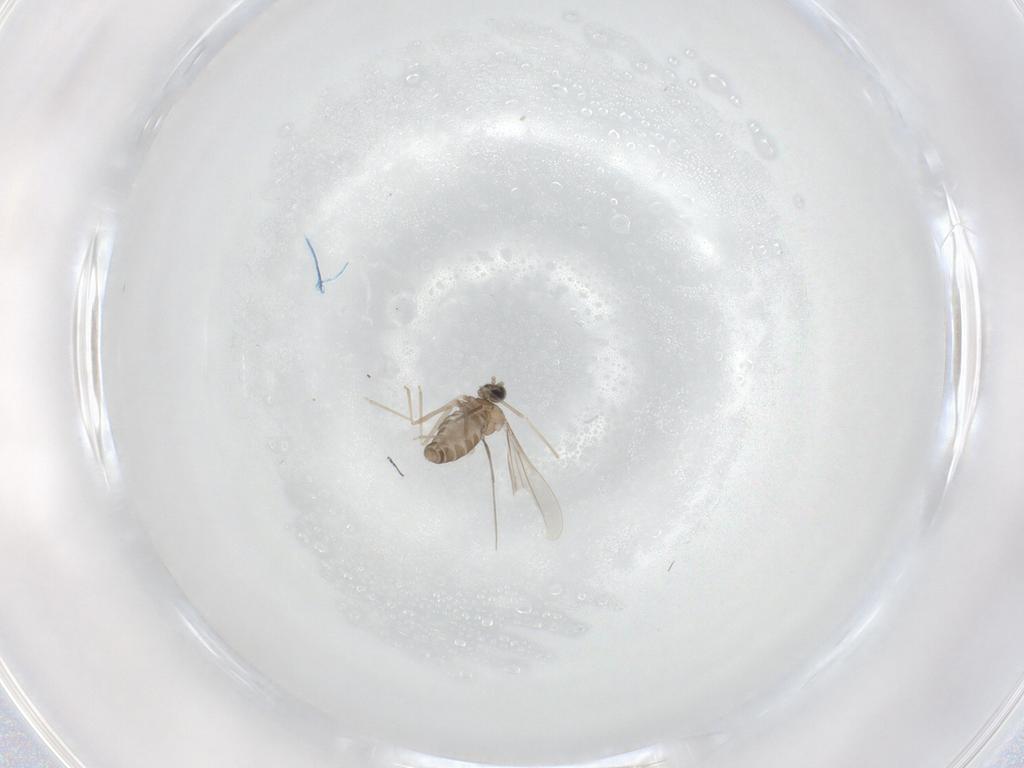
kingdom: Animalia
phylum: Arthropoda
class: Insecta
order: Diptera
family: Cecidomyiidae
